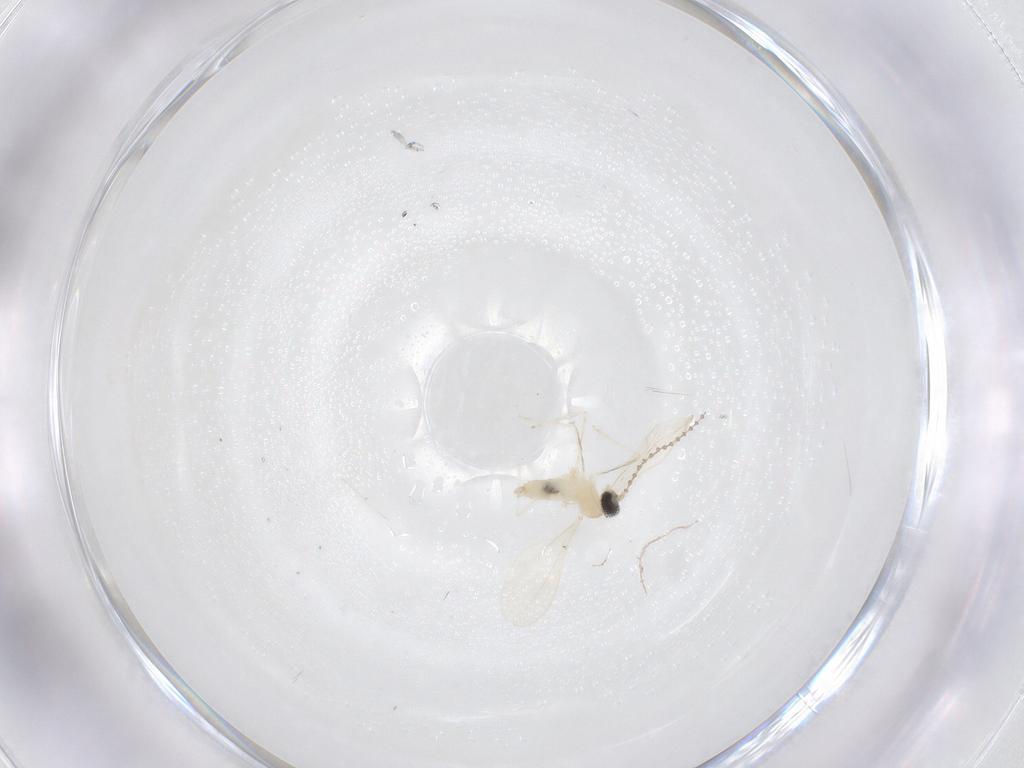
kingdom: Animalia
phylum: Arthropoda
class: Insecta
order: Diptera
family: Cecidomyiidae
